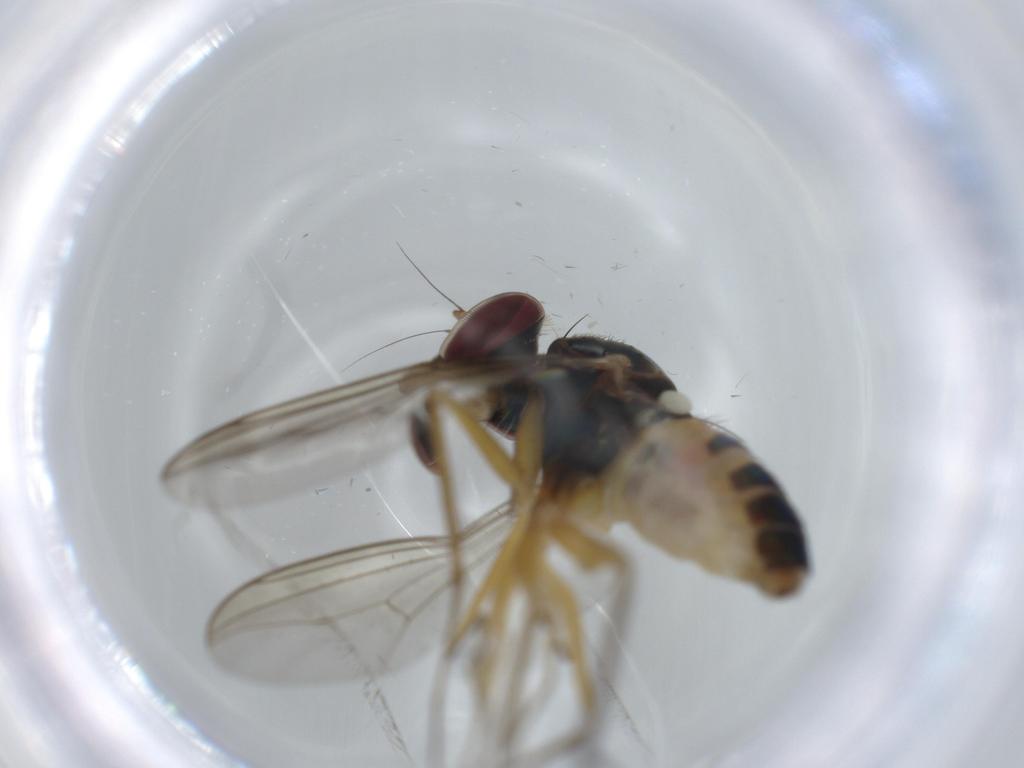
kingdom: Animalia
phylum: Arthropoda
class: Insecta
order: Diptera
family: Dolichopodidae
